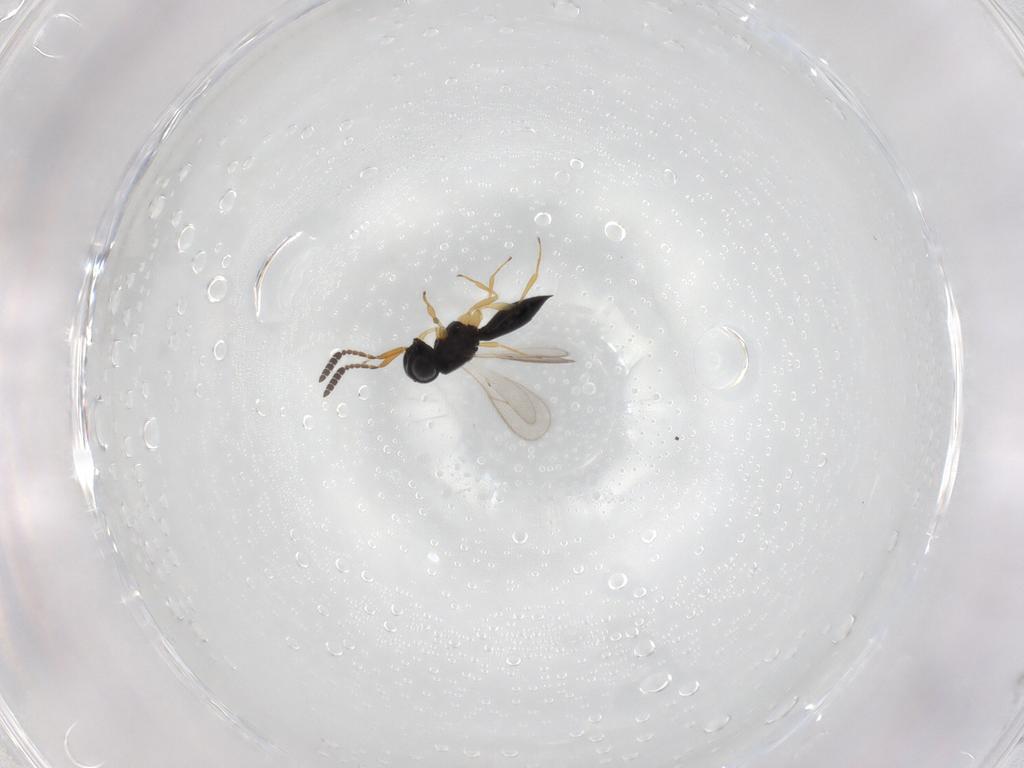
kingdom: Animalia
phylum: Arthropoda
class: Insecta
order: Hymenoptera
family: Scelionidae
